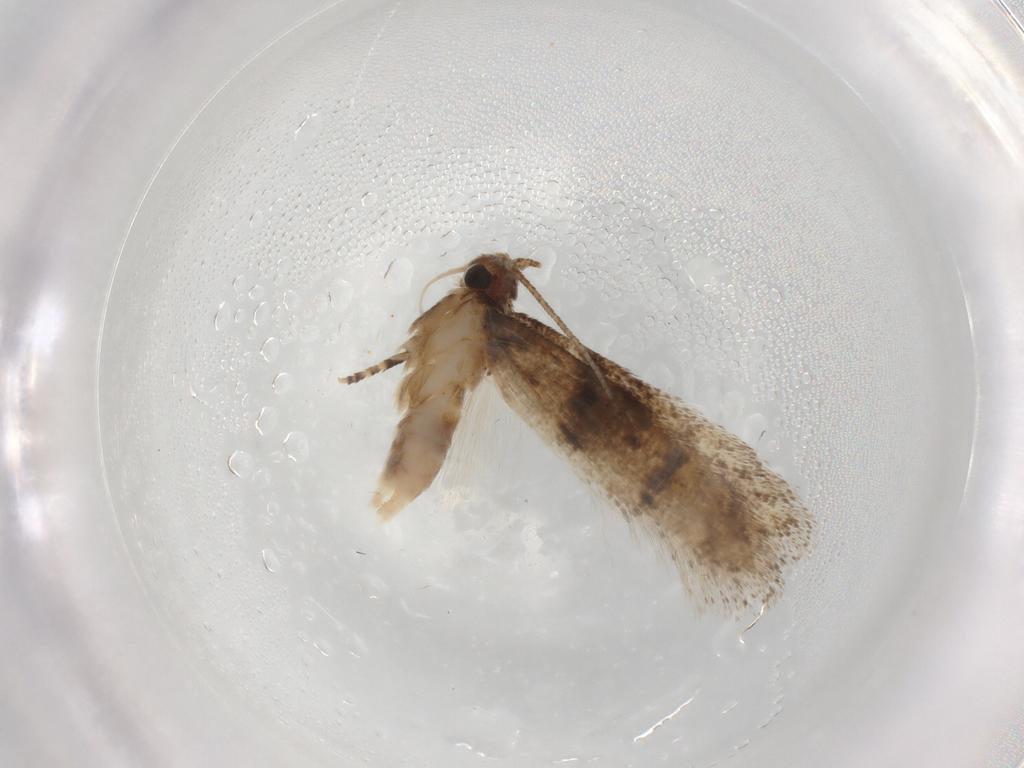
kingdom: Animalia
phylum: Arthropoda
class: Insecta
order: Lepidoptera
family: Gelechiidae
